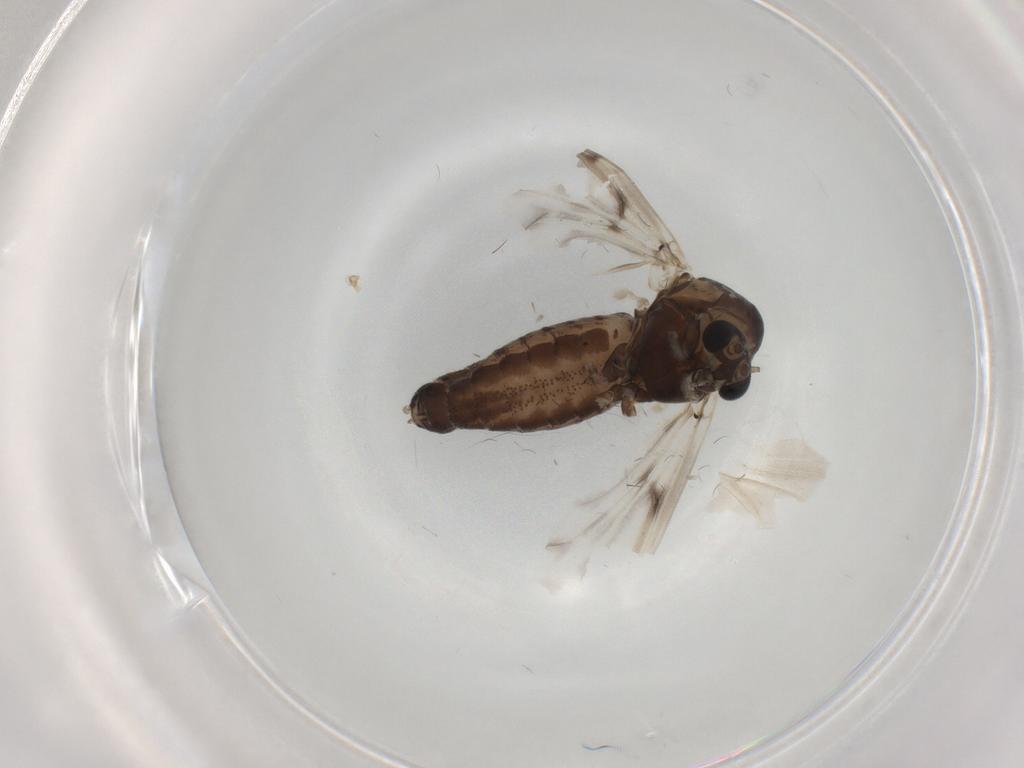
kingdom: Animalia
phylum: Arthropoda
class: Insecta
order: Diptera
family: Chironomidae
